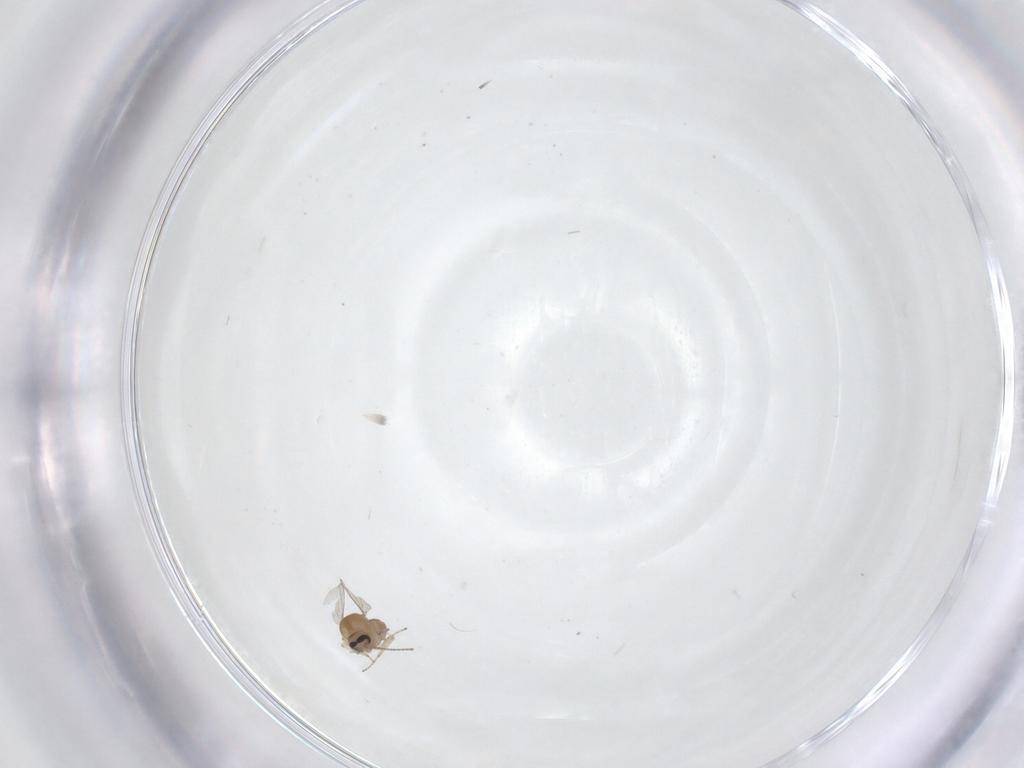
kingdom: Animalia
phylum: Arthropoda
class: Insecta
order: Diptera
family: Ceratopogonidae
